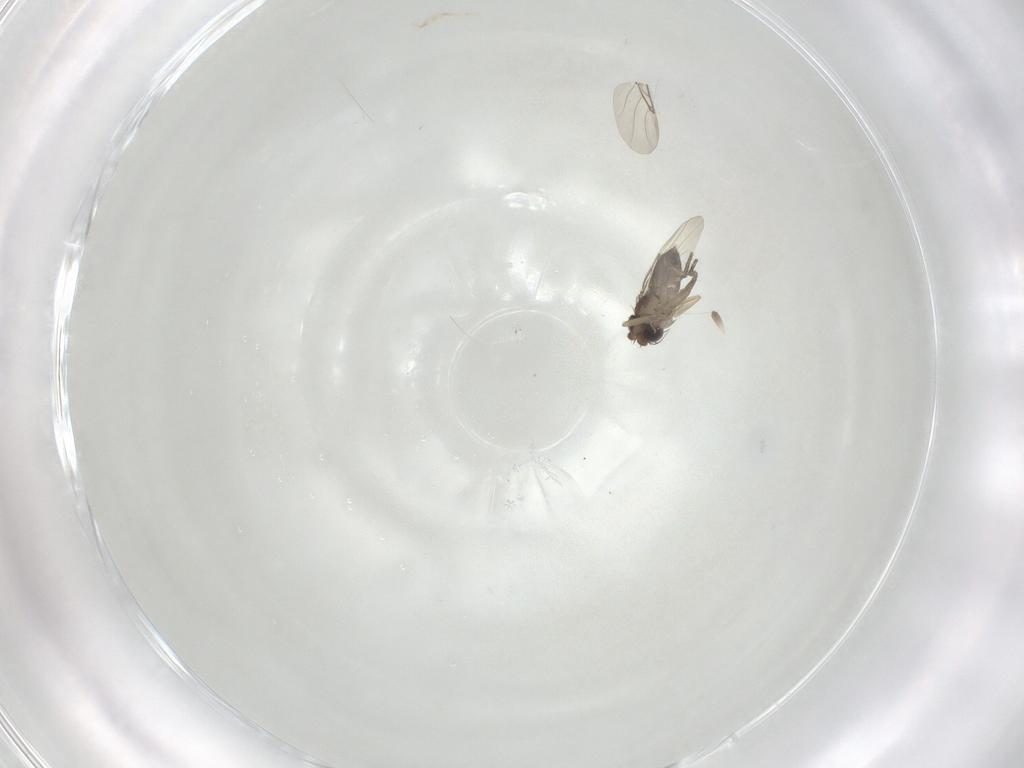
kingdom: Animalia
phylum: Arthropoda
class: Insecta
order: Diptera
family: Phoridae
